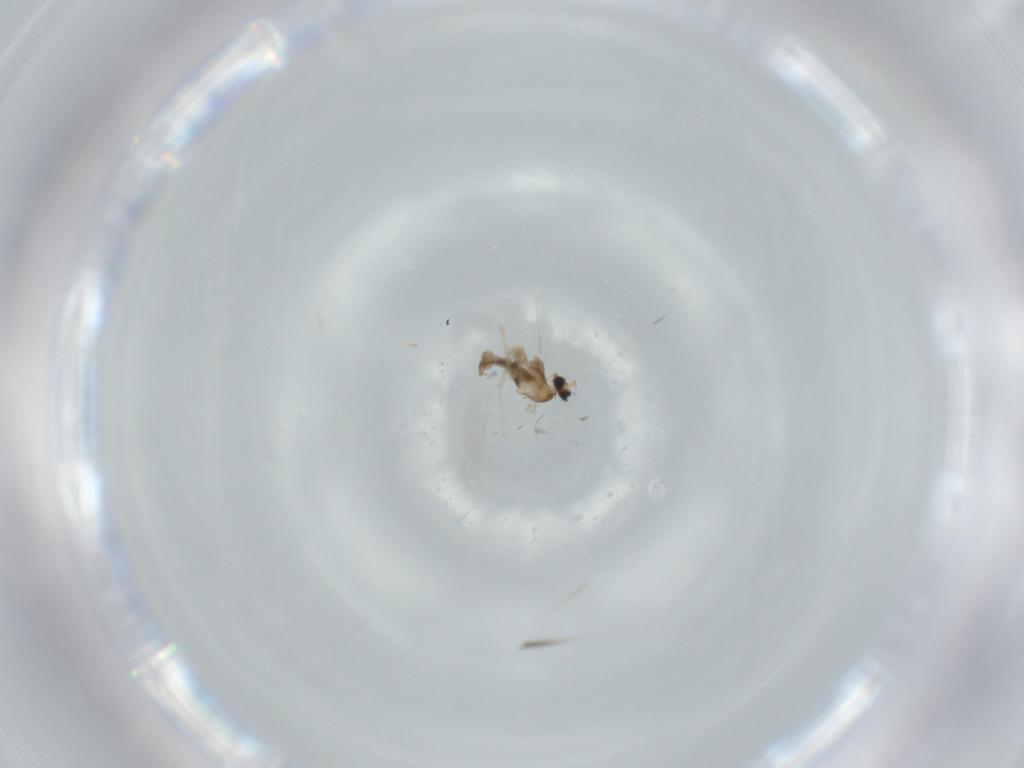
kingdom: Animalia
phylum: Arthropoda
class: Insecta
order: Diptera
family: Cecidomyiidae
